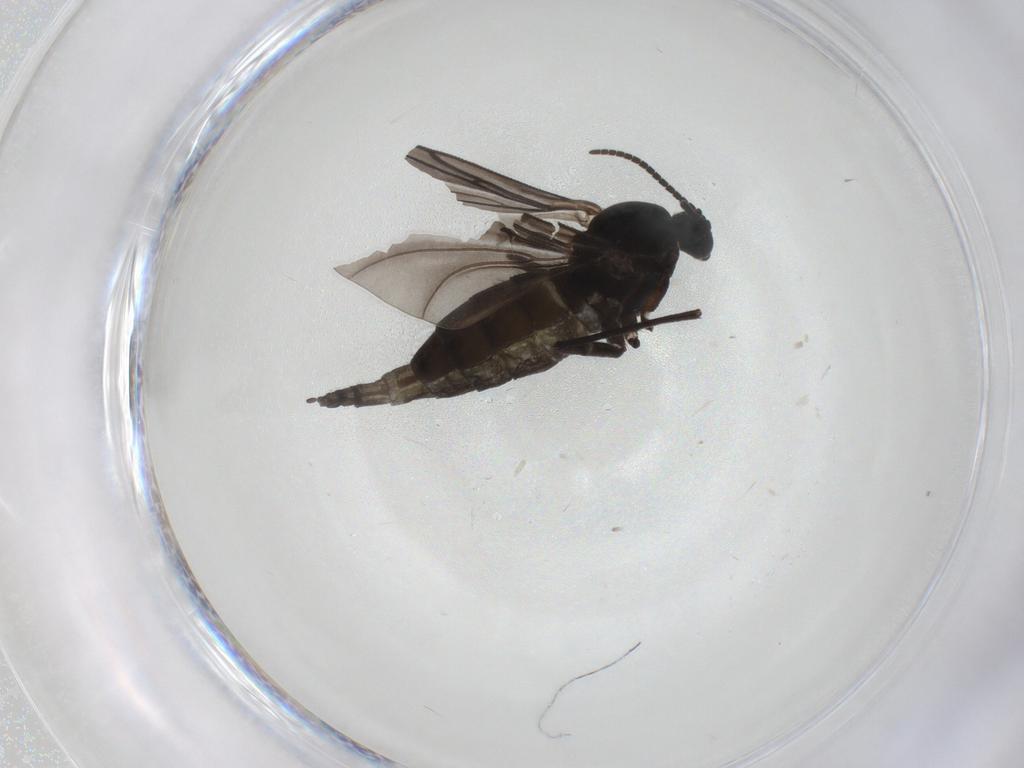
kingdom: Animalia
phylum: Arthropoda
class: Insecta
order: Diptera
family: Sciaridae
